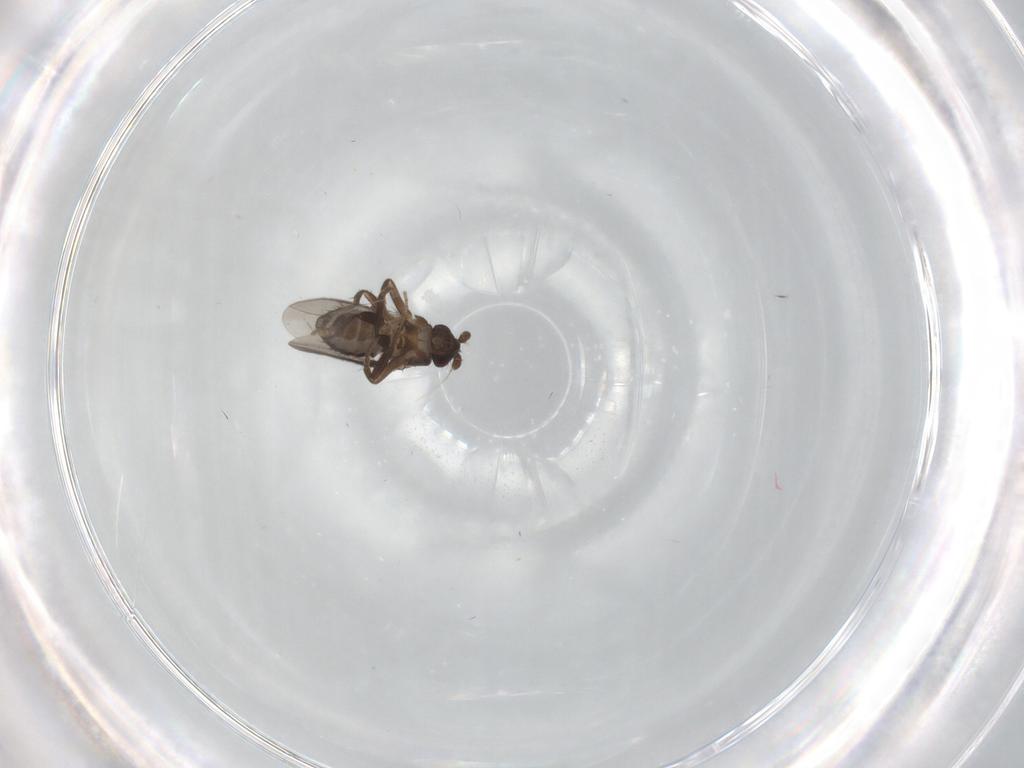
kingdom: Animalia
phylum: Arthropoda
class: Insecta
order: Diptera
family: Sphaeroceridae
